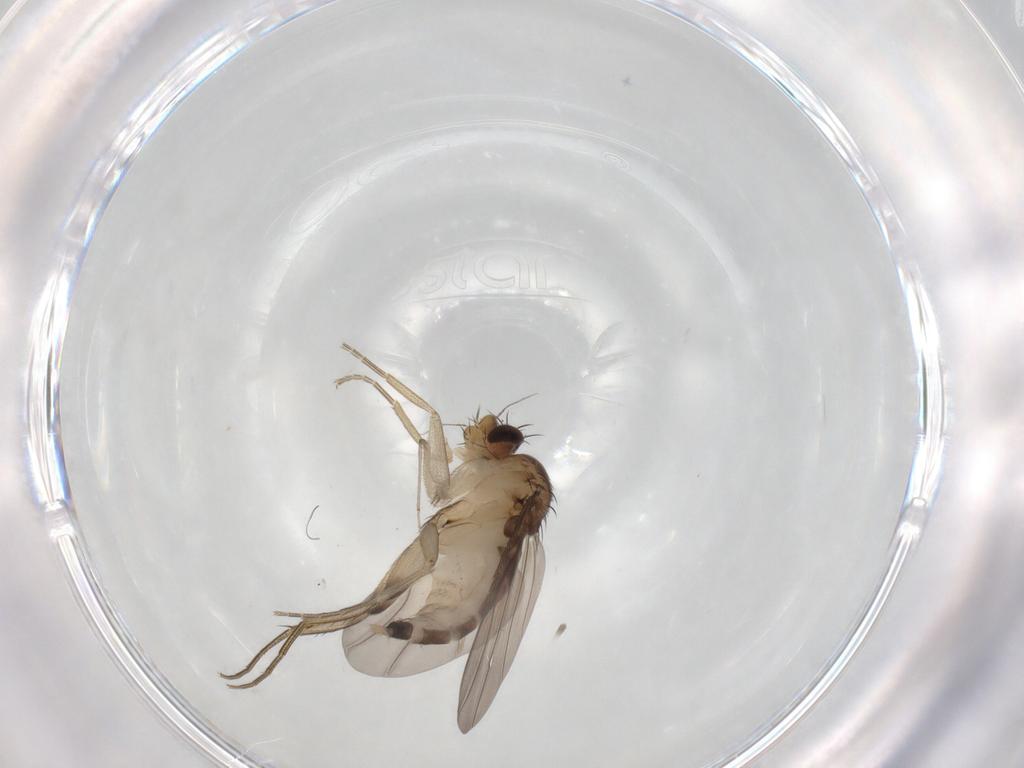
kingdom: Animalia
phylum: Arthropoda
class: Insecta
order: Diptera
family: Phoridae
